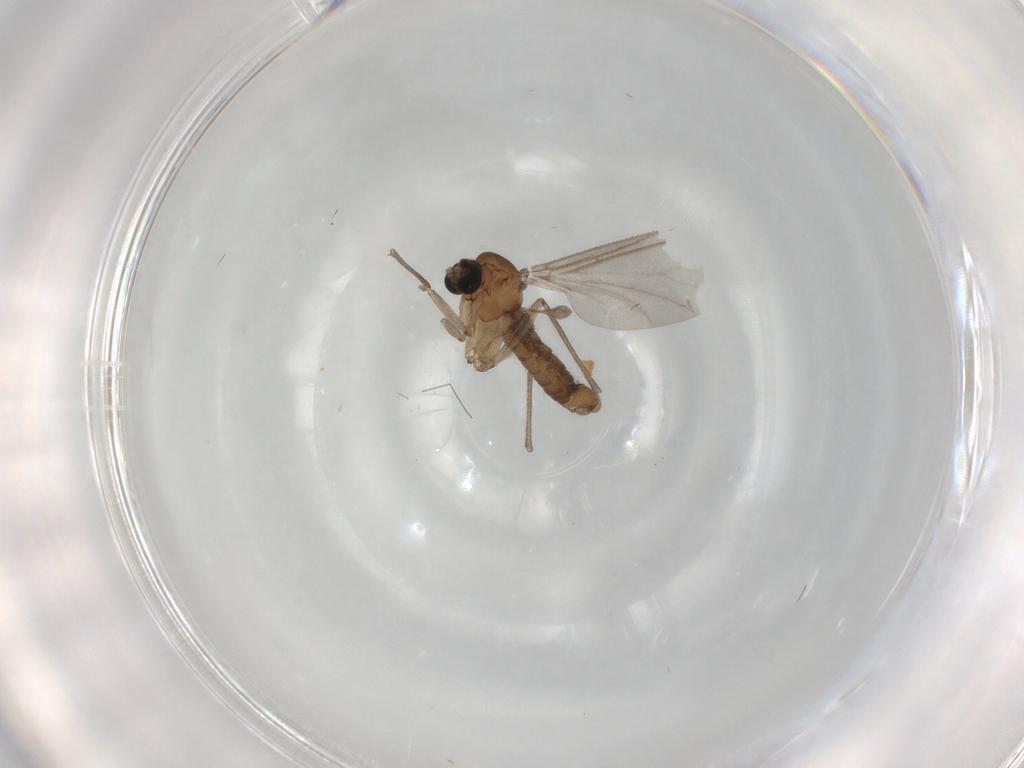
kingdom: Animalia
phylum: Arthropoda
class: Insecta
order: Diptera
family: Sciaridae
